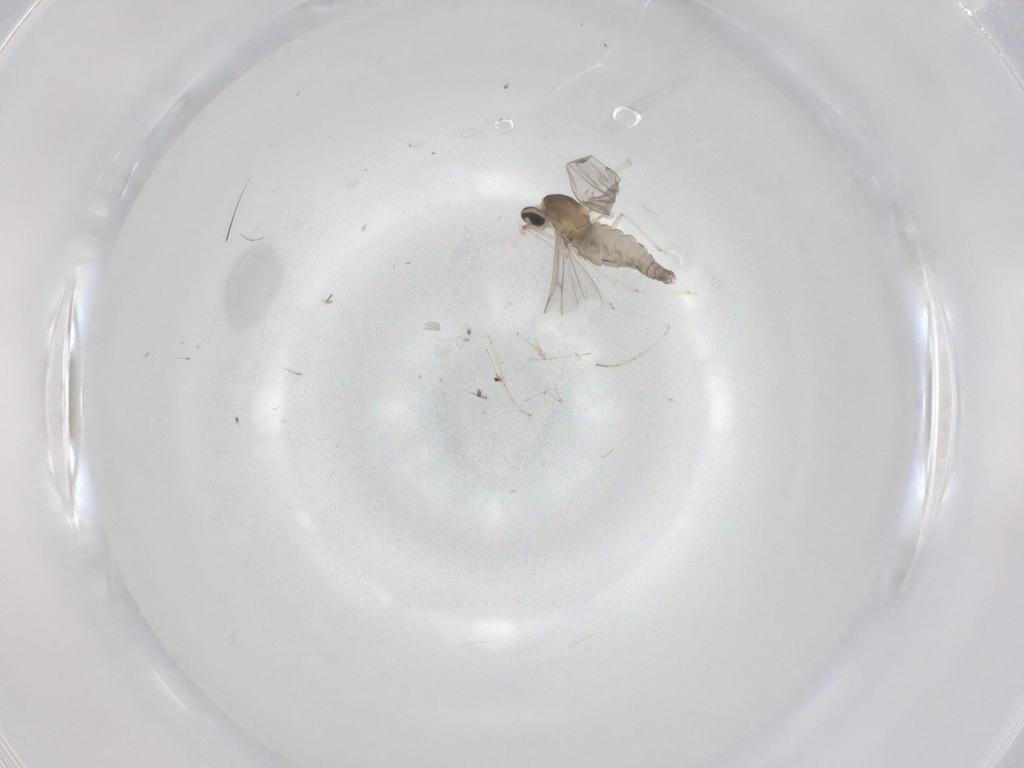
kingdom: Animalia
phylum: Arthropoda
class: Insecta
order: Diptera
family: Cecidomyiidae
